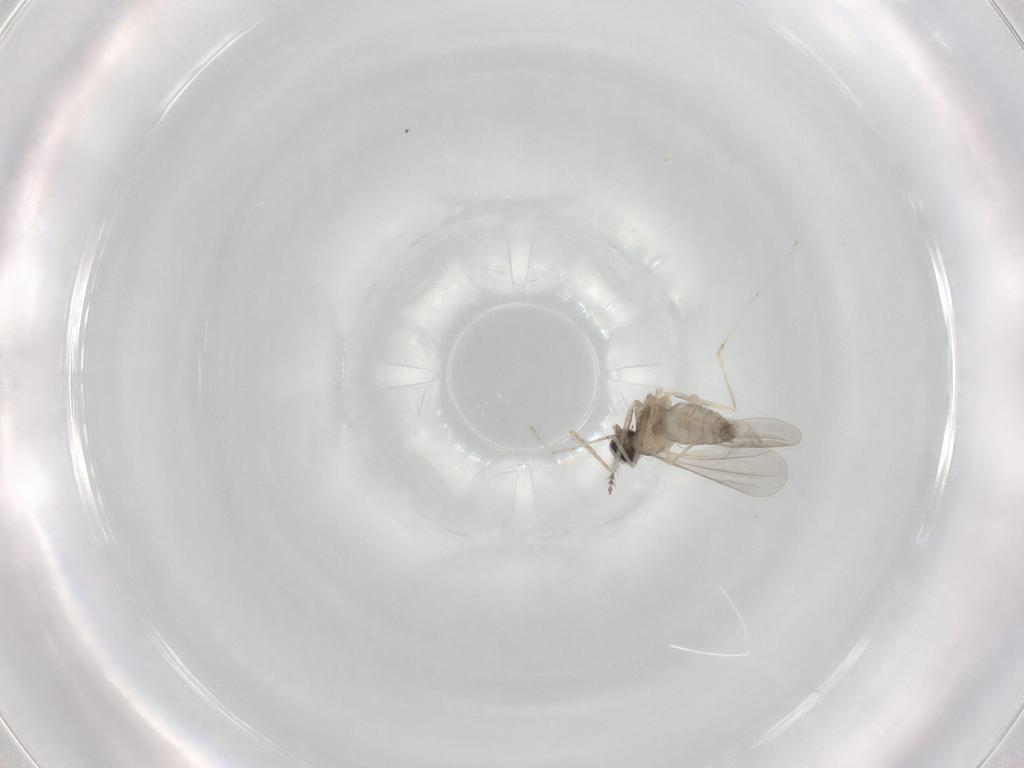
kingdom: Animalia
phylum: Arthropoda
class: Insecta
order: Diptera
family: Cecidomyiidae
